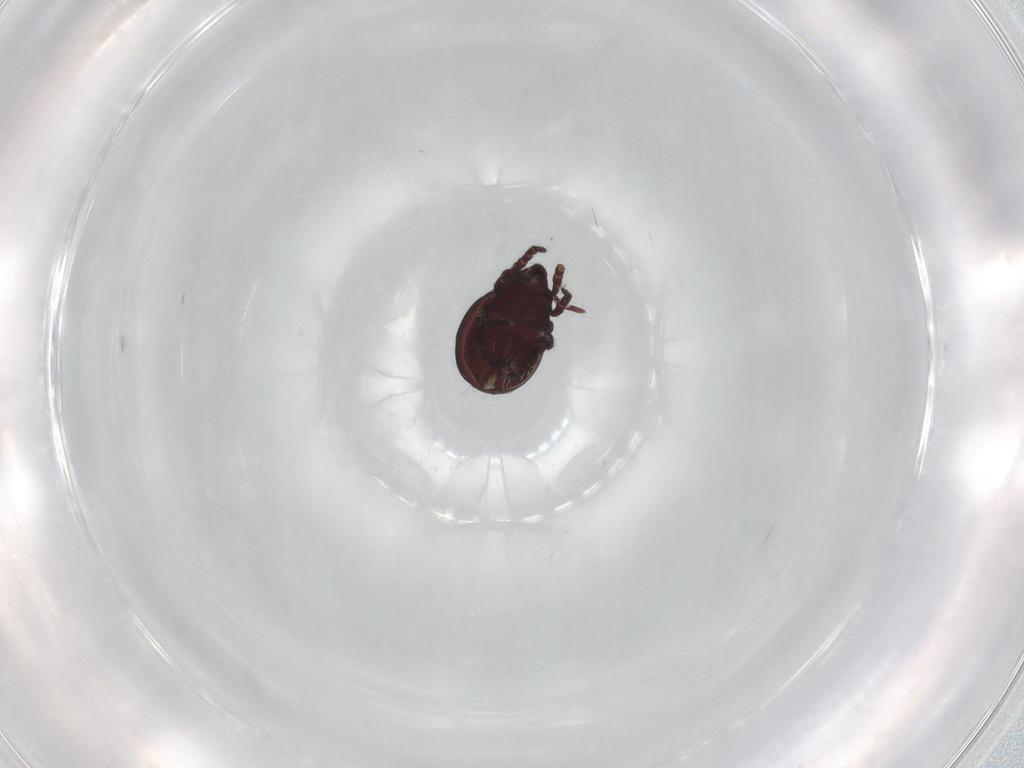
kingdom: Animalia
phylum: Arthropoda
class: Arachnida
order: Sarcoptiformes
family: Hermanniidae
